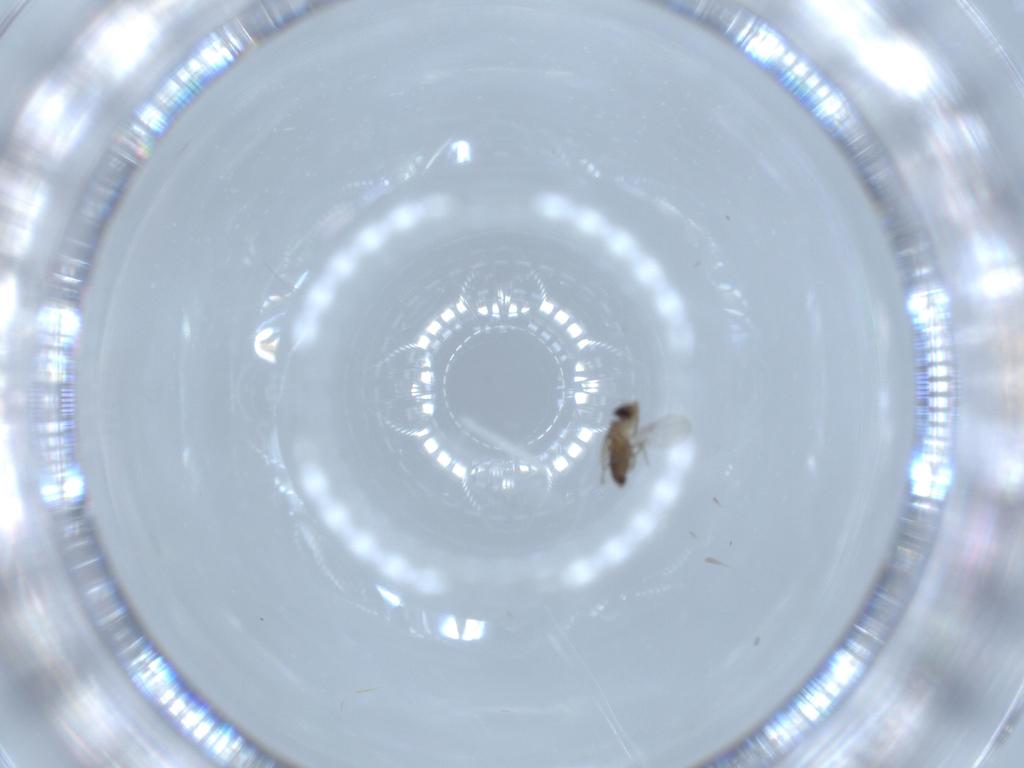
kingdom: Animalia
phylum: Arthropoda
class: Insecta
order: Diptera
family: Phoridae
